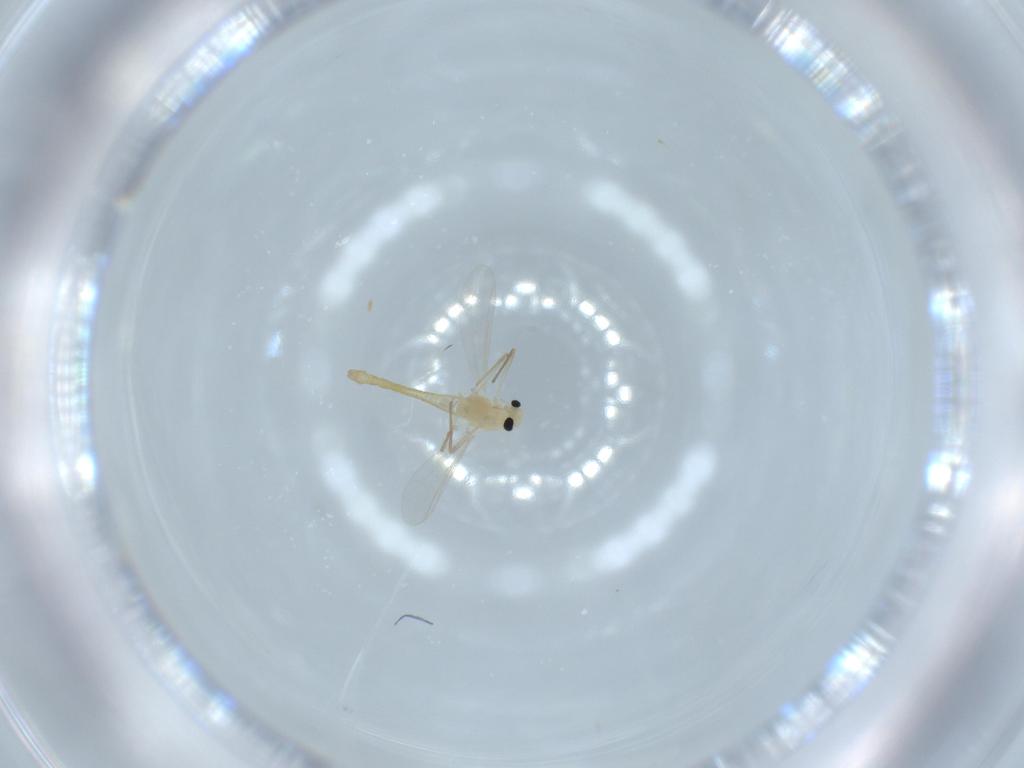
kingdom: Animalia
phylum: Arthropoda
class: Insecta
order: Diptera
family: Chironomidae
